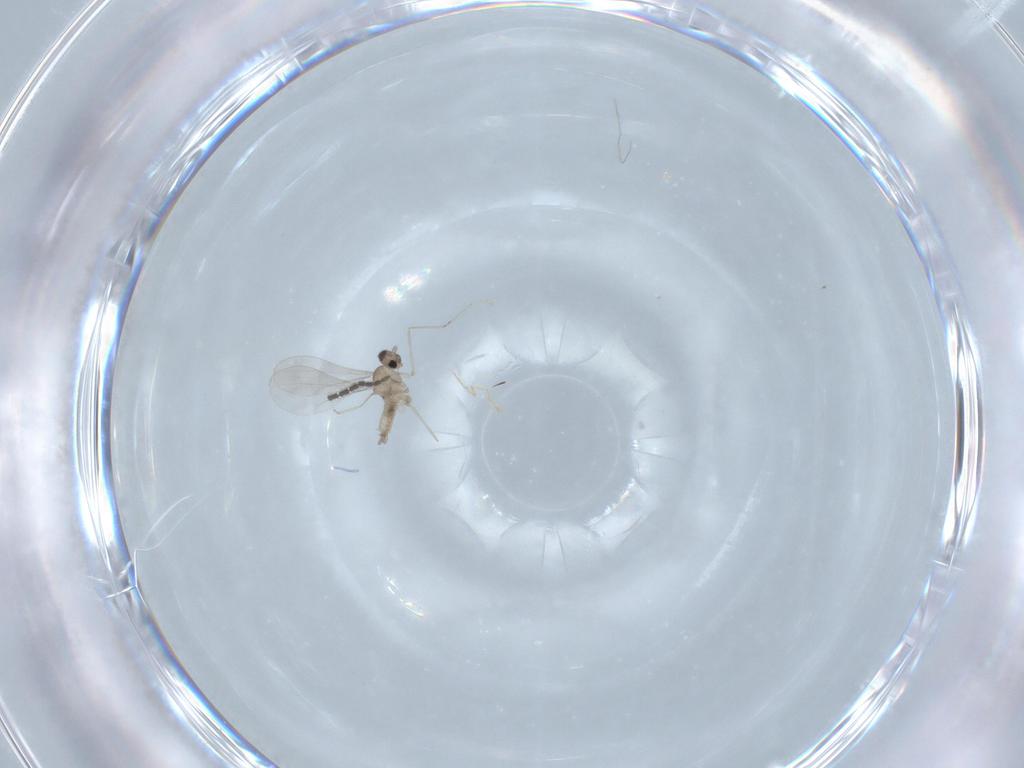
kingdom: Animalia
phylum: Arthropoda
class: Insecta
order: Diptera
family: Cecidomyiidae
